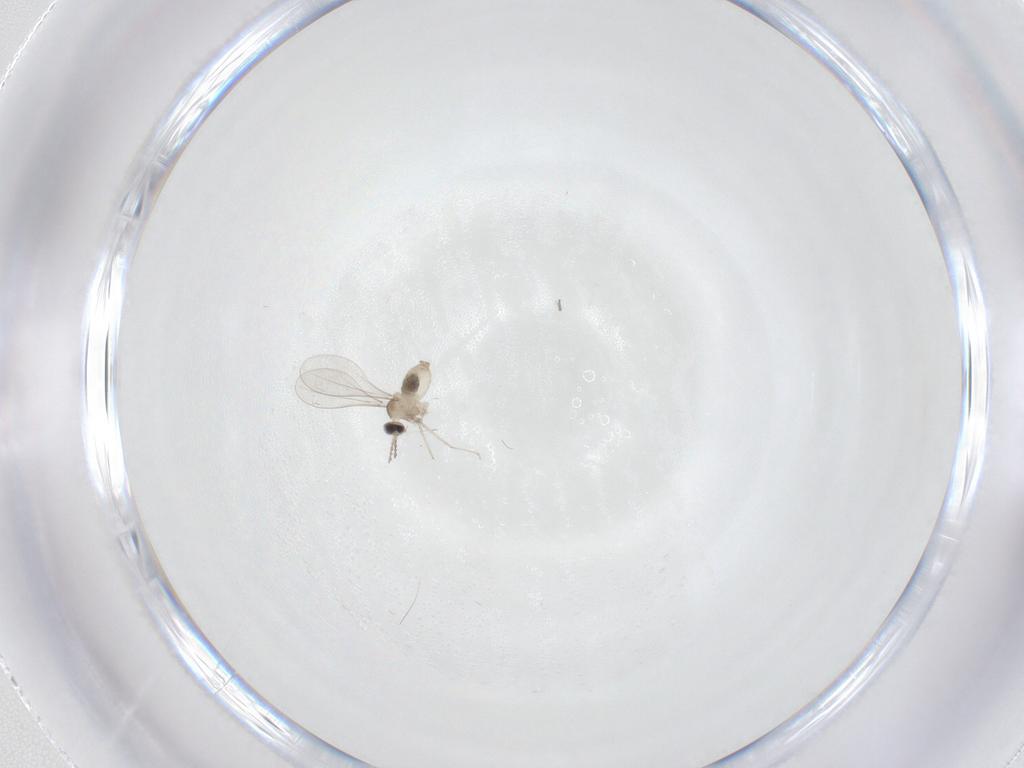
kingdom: Animalia
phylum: Arthropoda
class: Insecta
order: Diptera
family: Cecidomyiidae
